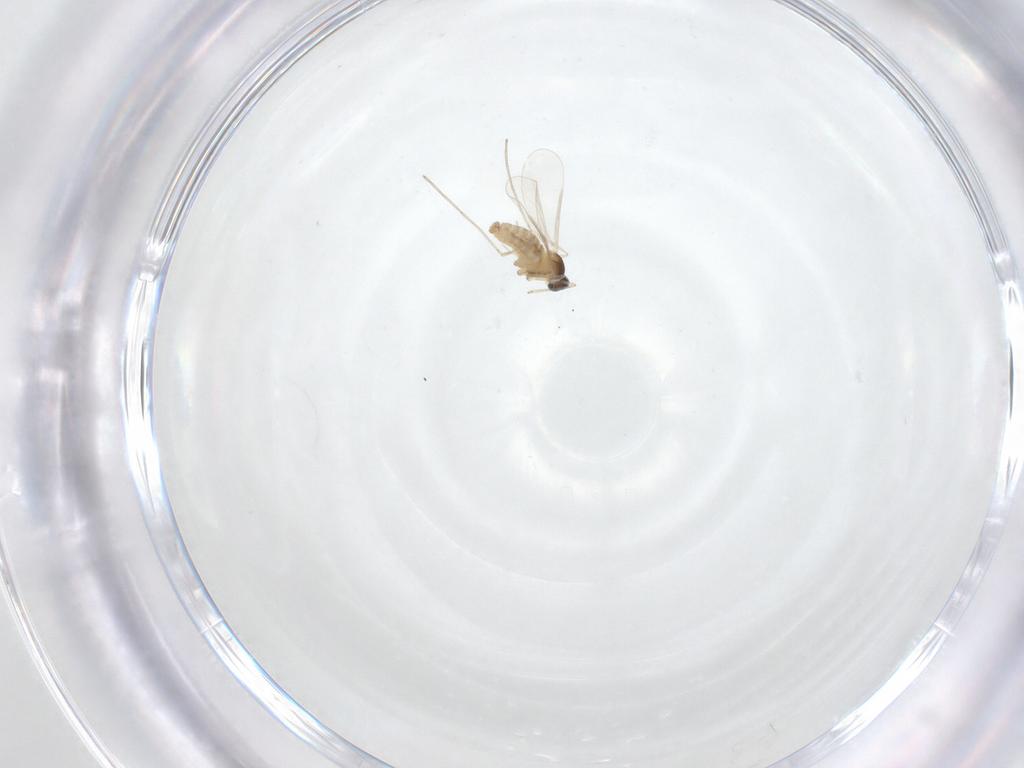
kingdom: Animalia
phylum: Arthropoda
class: Insecta
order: Diptera
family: Cecidomyiidae
